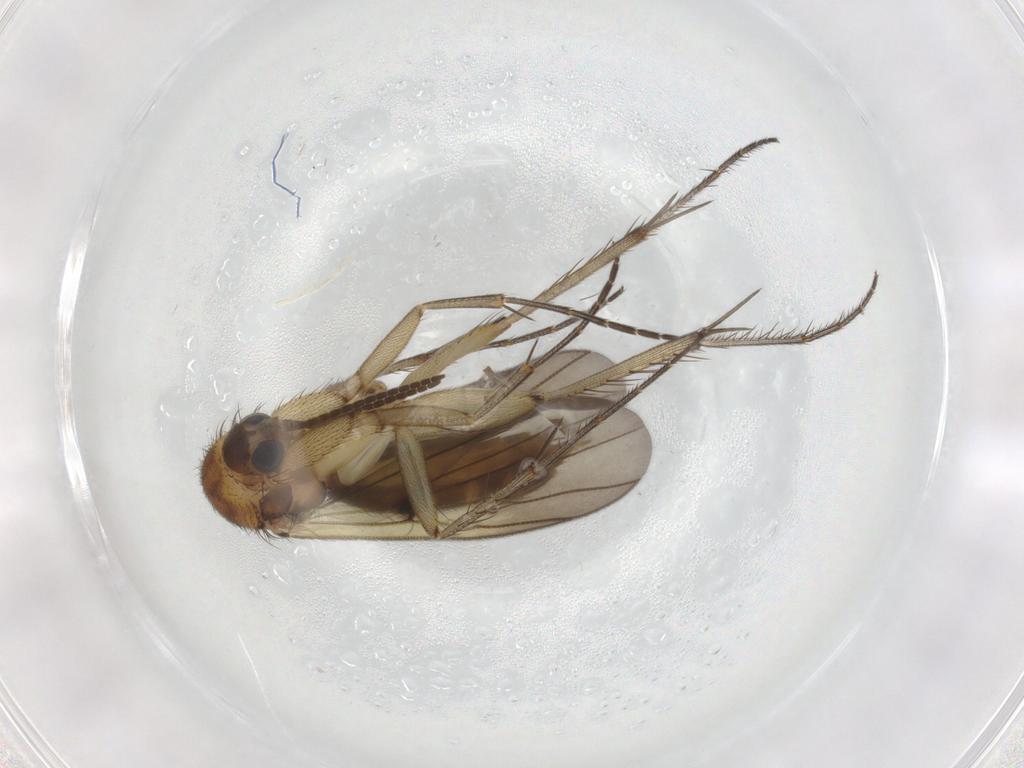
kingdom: Animalia
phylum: Arthropoda
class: Insecta
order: Diptera
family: Mycetophilidae
